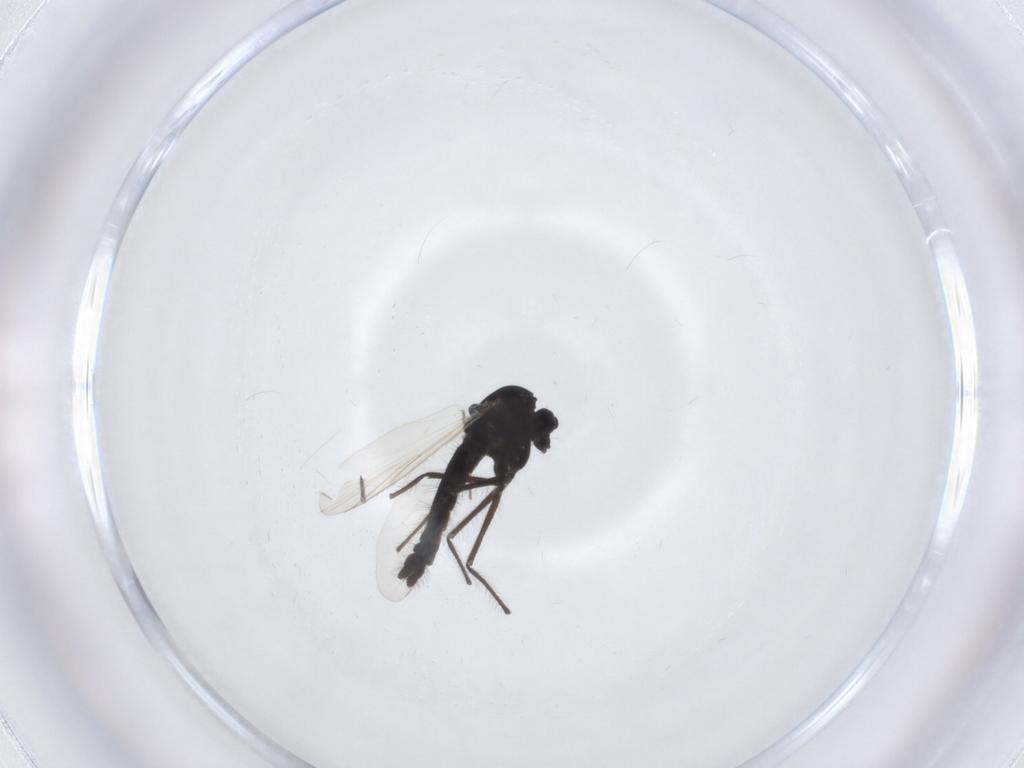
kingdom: Animalia
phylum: Arthropoda
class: Insecta
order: Diptera
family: Chironomidae
